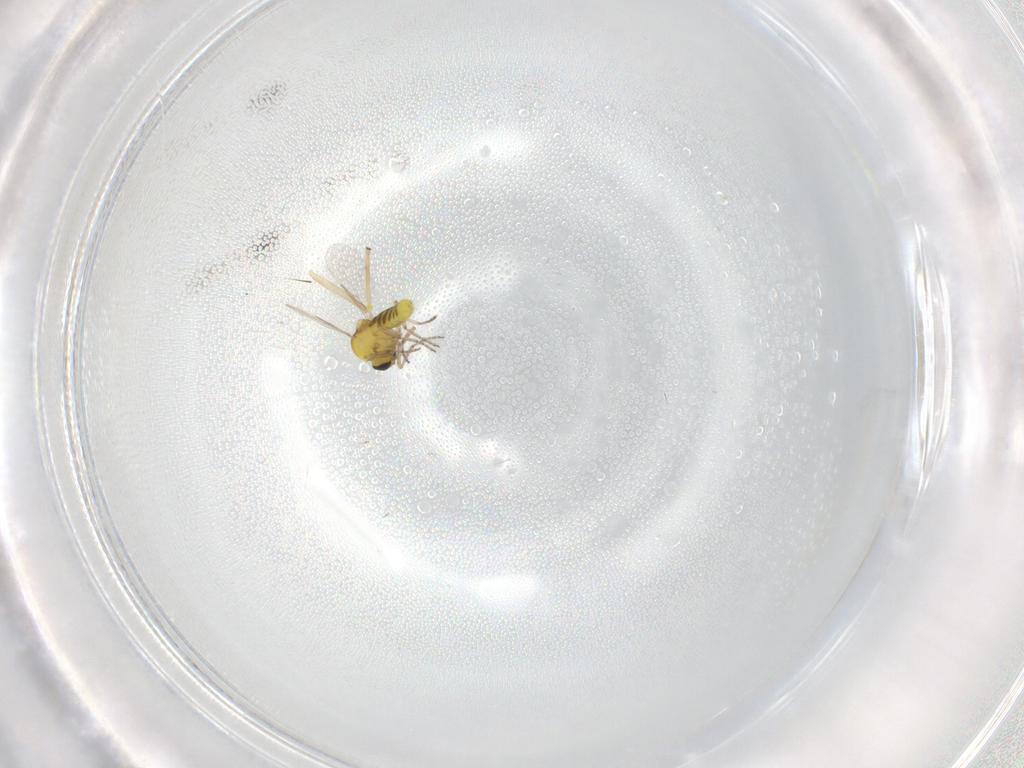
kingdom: Animalia
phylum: Arthropoda
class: Insecta
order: Diptera
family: Ceratopogonidae
